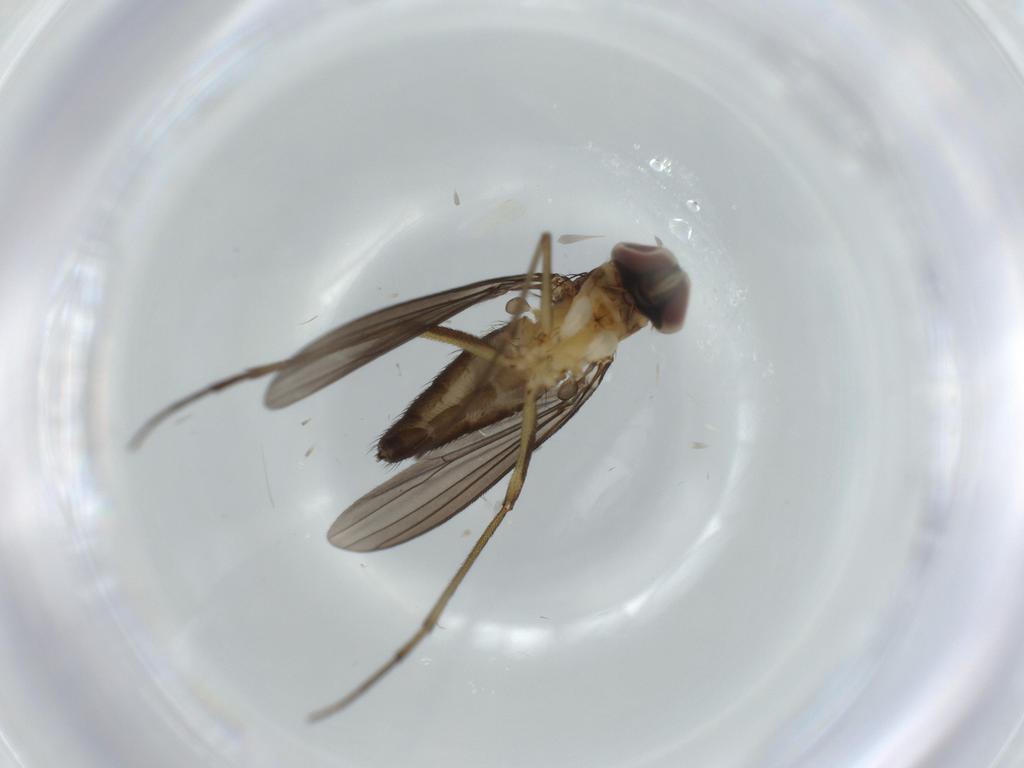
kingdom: Animalia
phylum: Arthropoda
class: Insecta
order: Diptera
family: Dolichopodidae
